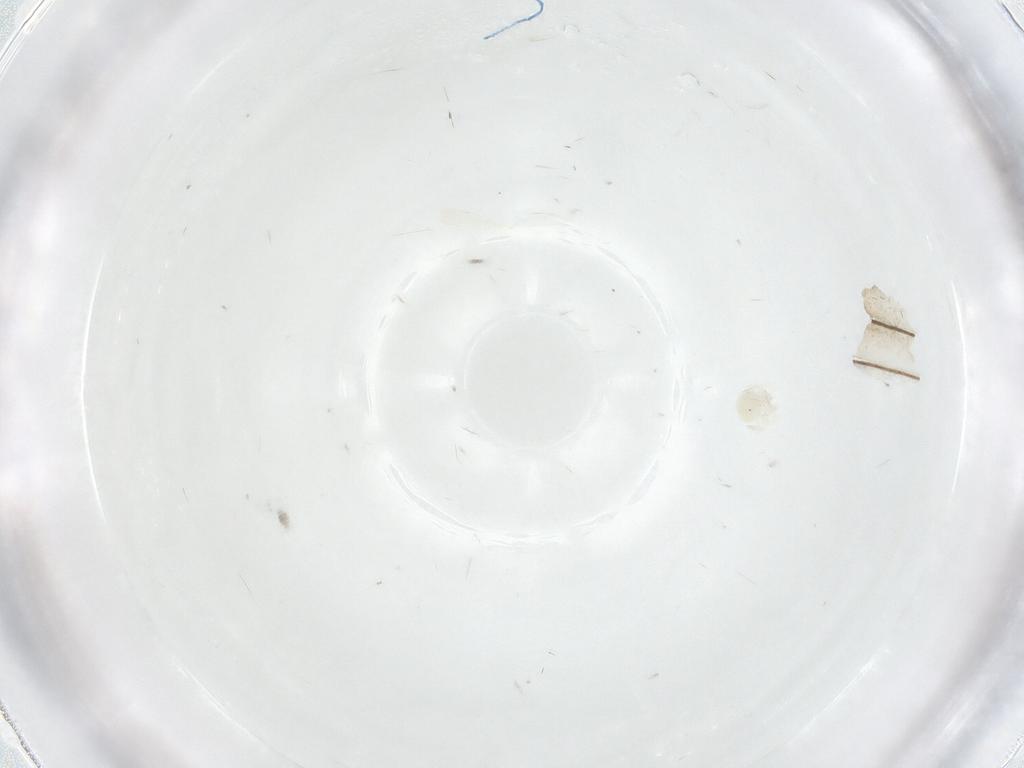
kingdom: Animalia
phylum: Arthropoda
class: Arachnida
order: Trombidiformes
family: Anystidae
